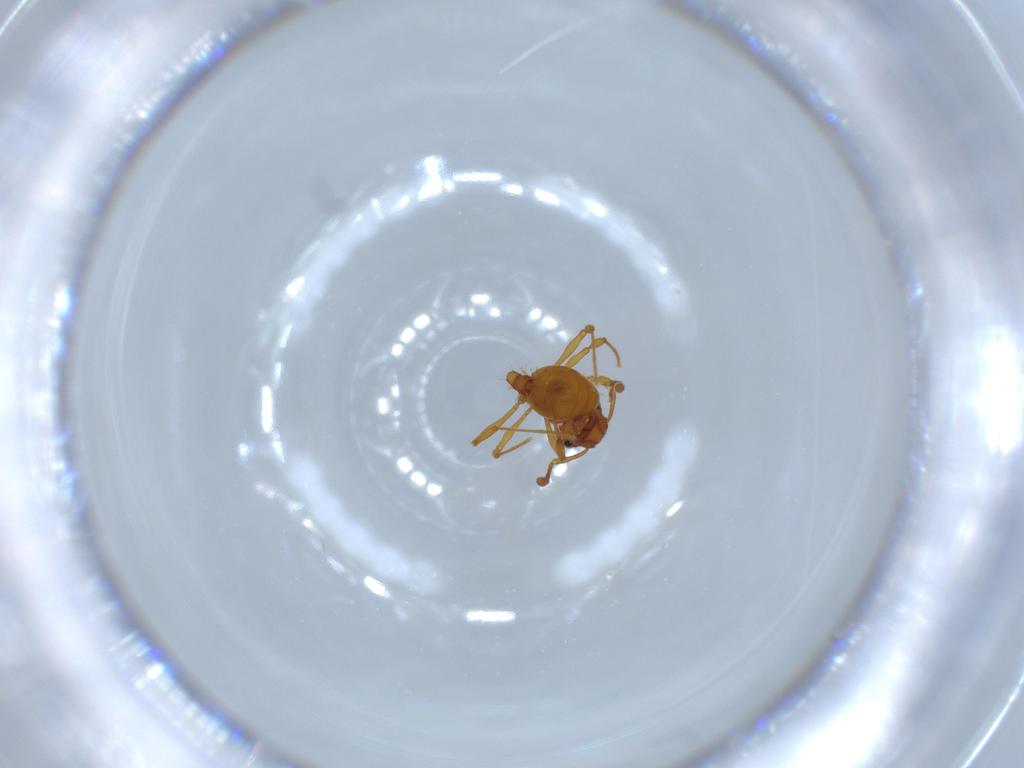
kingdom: Animalia
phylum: Arthropoda
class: Insecta
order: Hymenoptera
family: Formicidae
